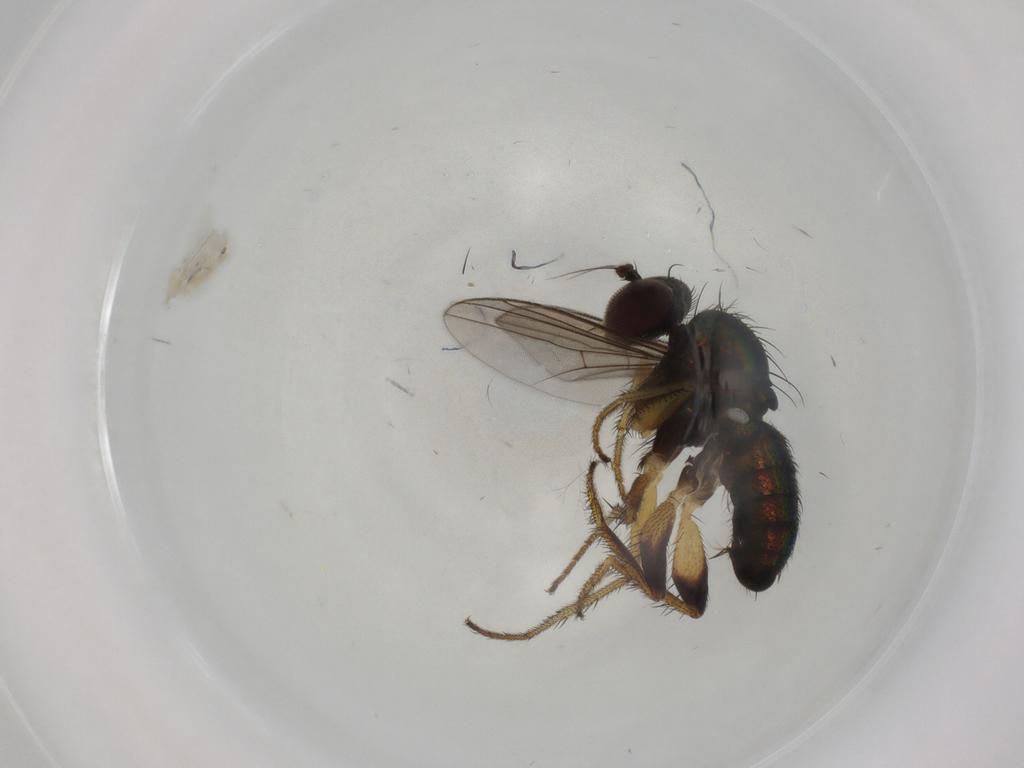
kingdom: Animalia
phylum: Arthropoda
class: Insecta
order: Diptera
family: Dolichopodidae
